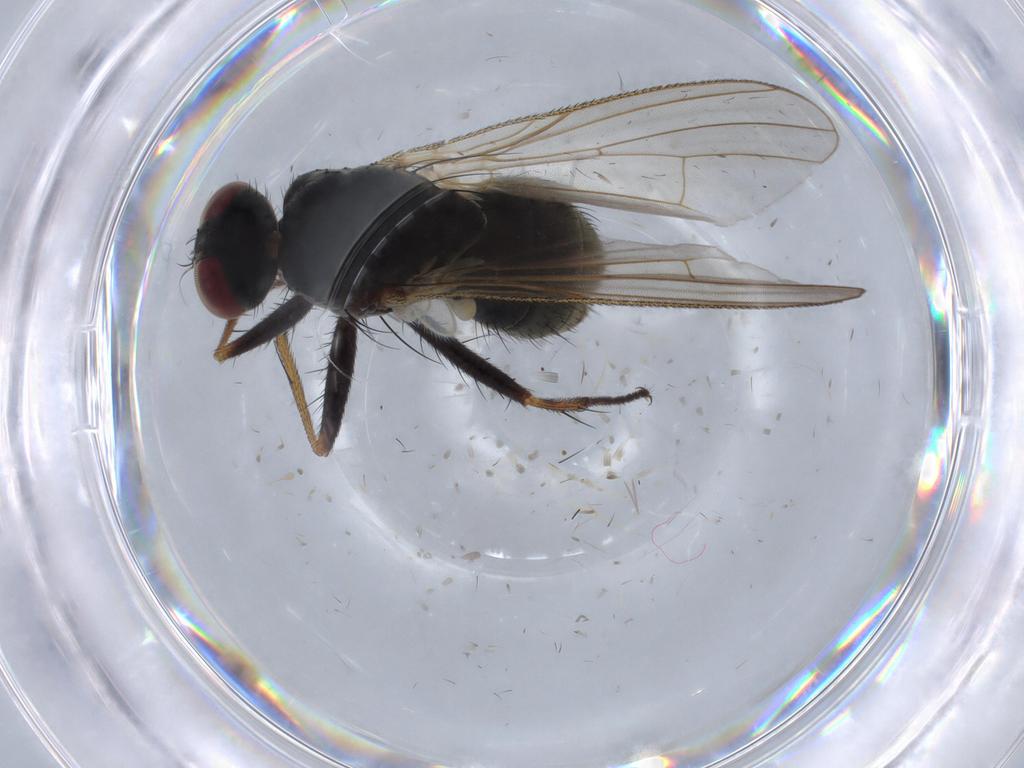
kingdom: Animalia
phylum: Arthropoda
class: Insecta
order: Diptera
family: Muscidae
